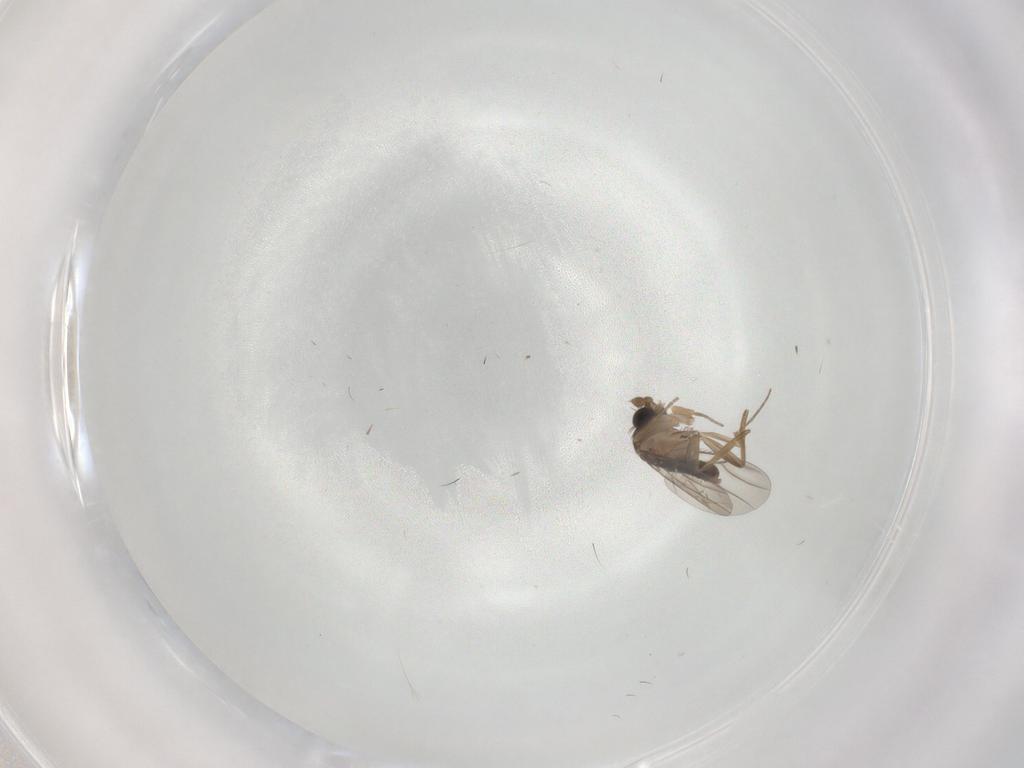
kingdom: Animalia
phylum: Arthropoda
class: Insecta
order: Diptera
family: Cecidomyiidae
